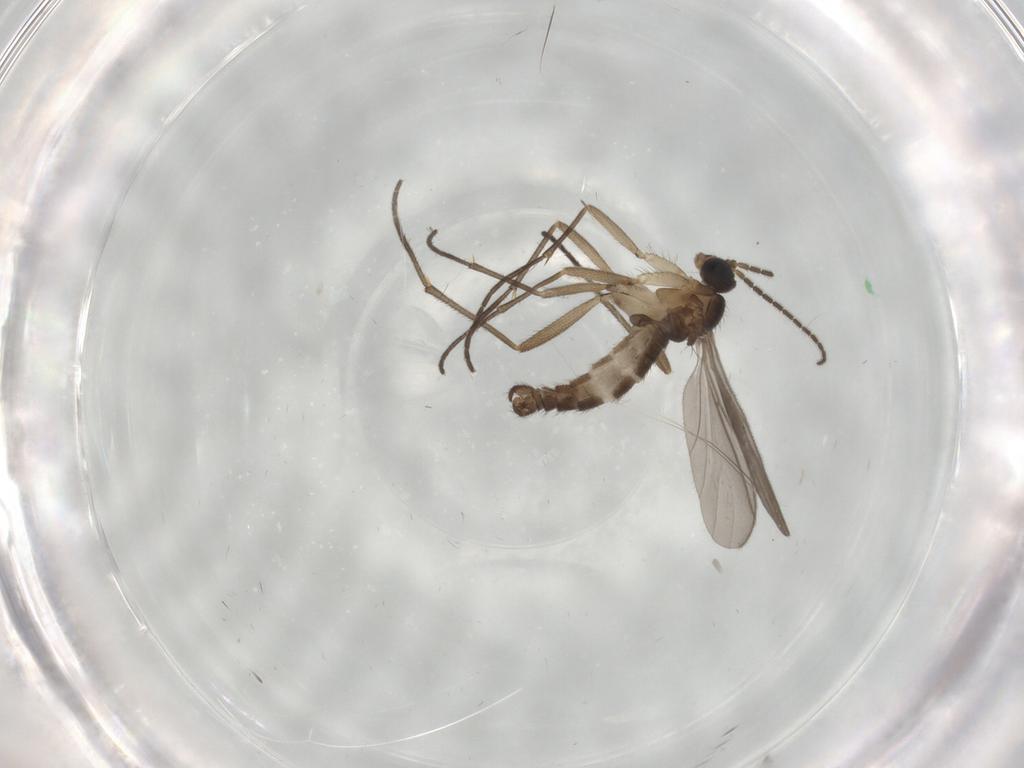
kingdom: Animalia
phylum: Arthropoda
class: Insecta
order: Diptera
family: Sciaridae
